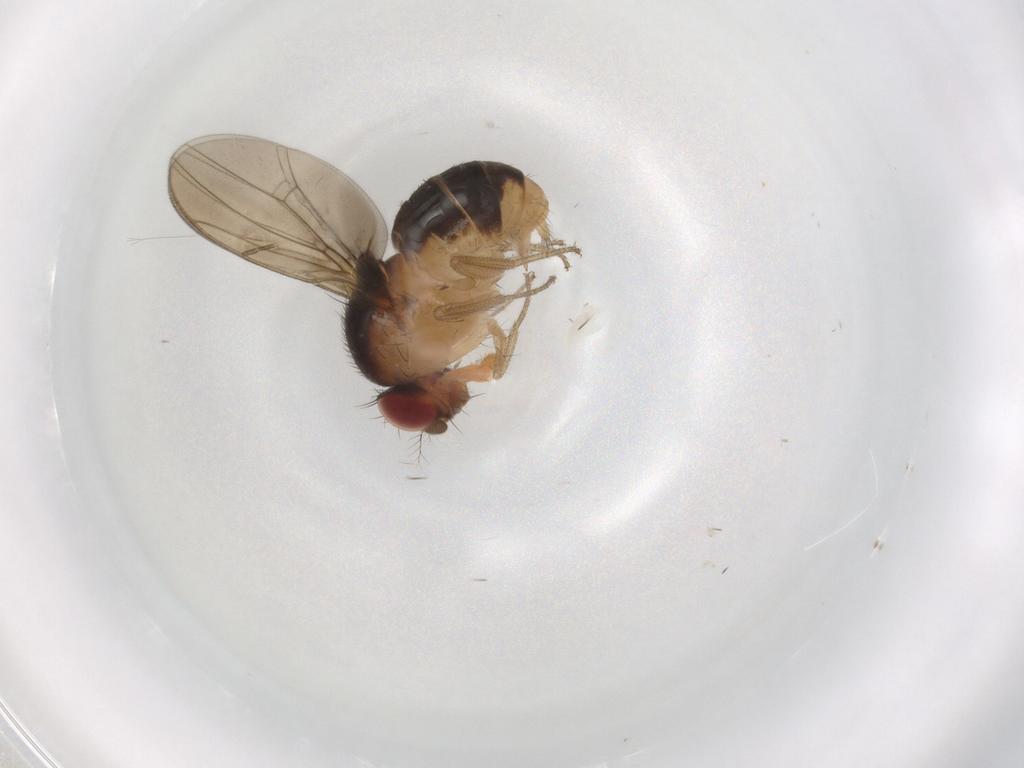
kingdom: Animalia
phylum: Arthropoda
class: Insecta
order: Diptera
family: Drosophilidae
